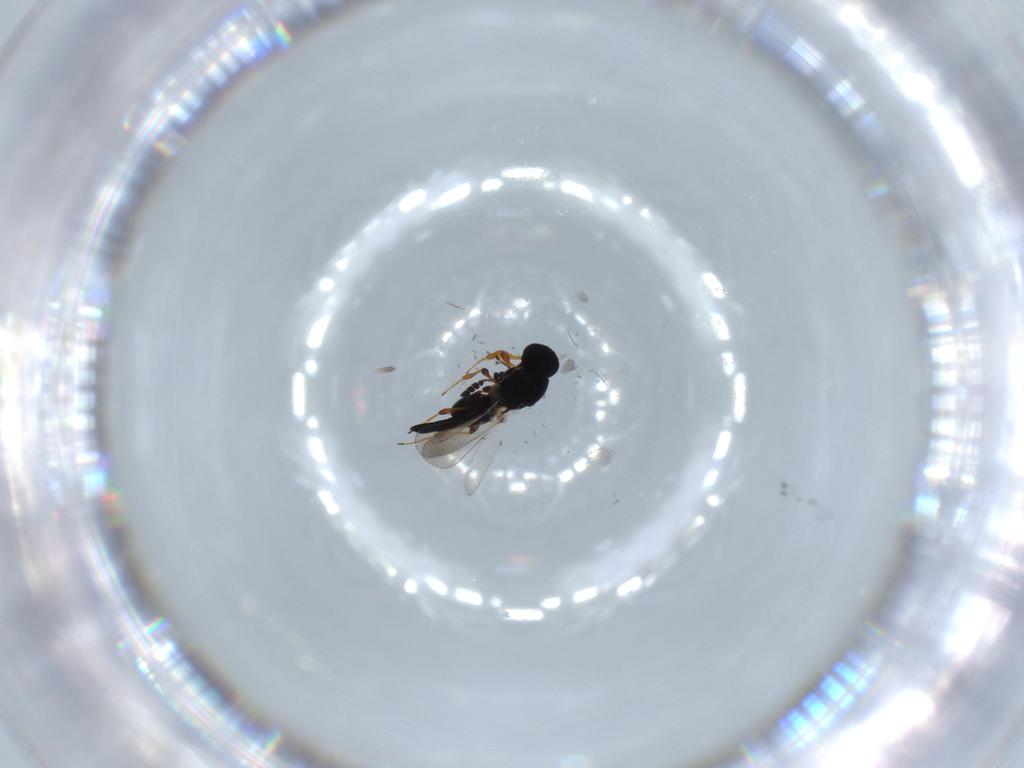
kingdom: Animalia
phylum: Arthropoda
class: Insecta
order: Hymenoptera
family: Platygastridae
